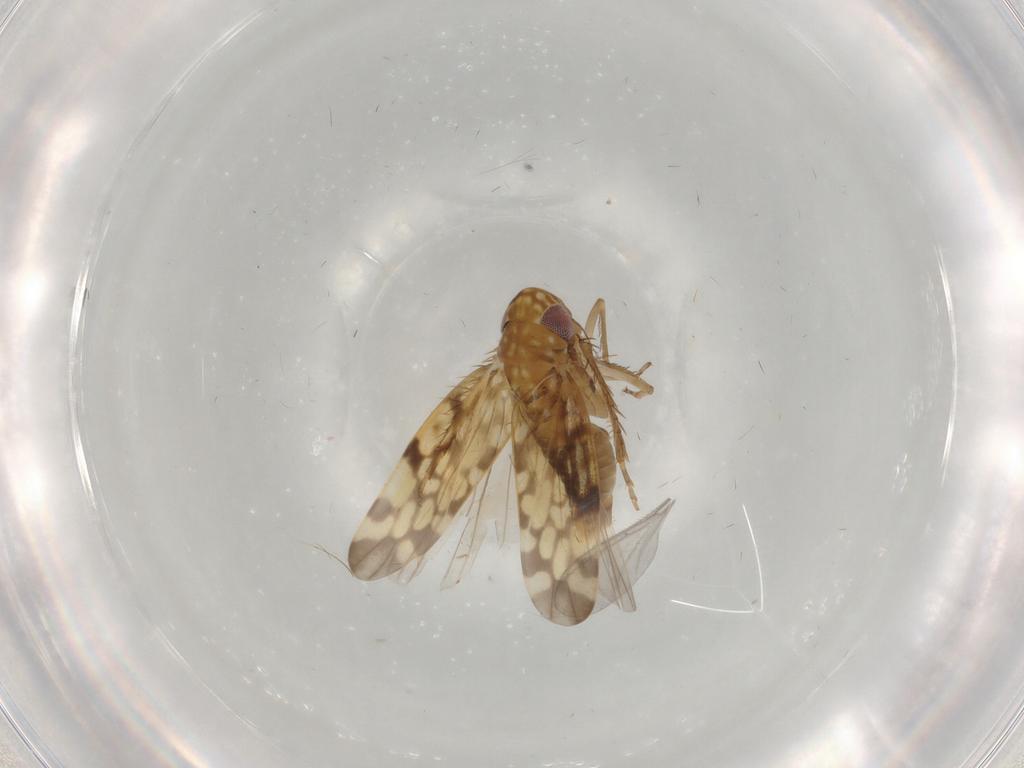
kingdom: Animalia
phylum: Arthropoda
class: Insecta
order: Hemiptera
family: Cicadellidae
